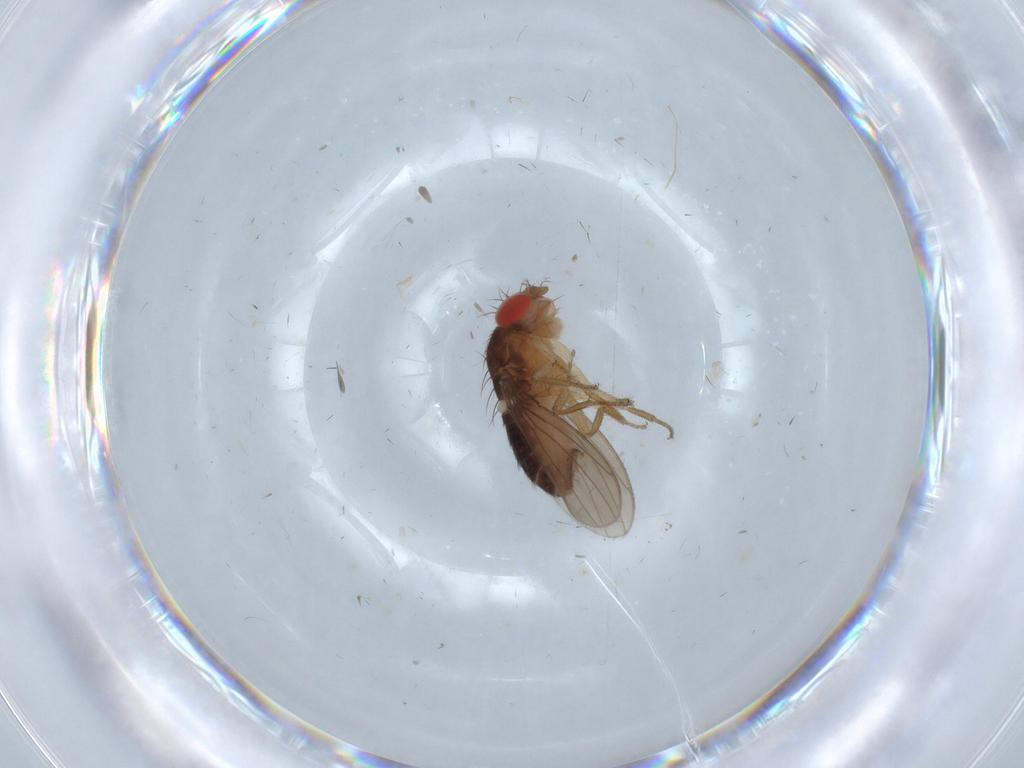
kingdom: Animalia
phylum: Arthropoda
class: Insecta
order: Diptera
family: Drosophilidae
